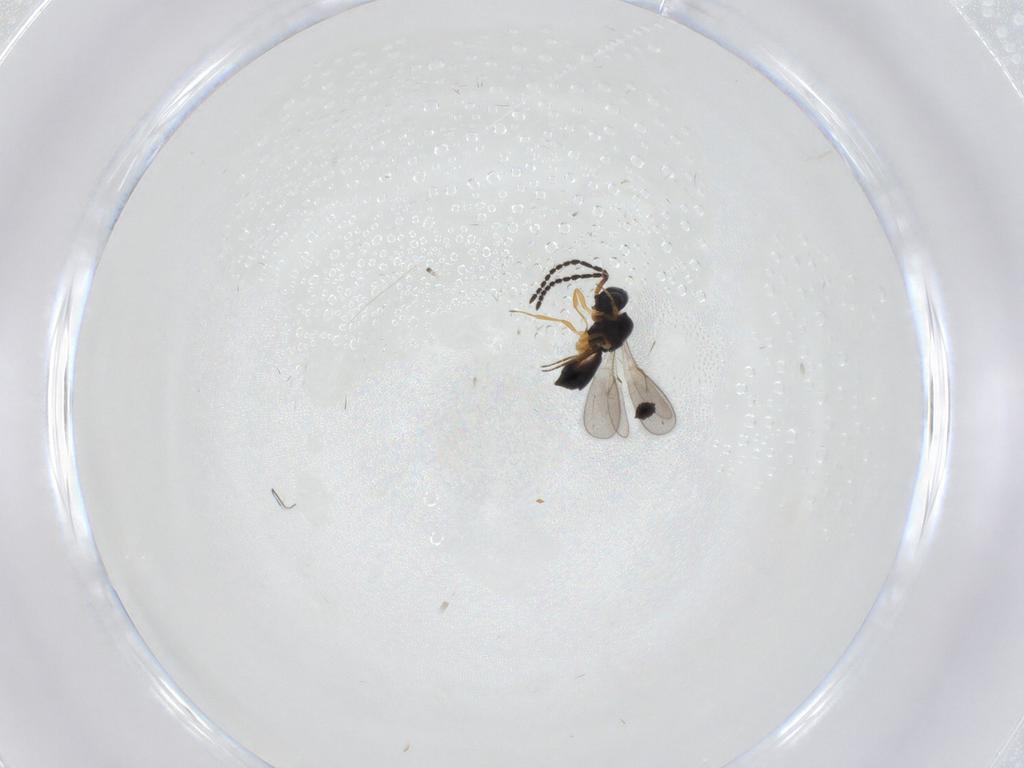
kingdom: Animalia
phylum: Arthropoda
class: Insecta
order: Hymenoptera
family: Scelionidae
